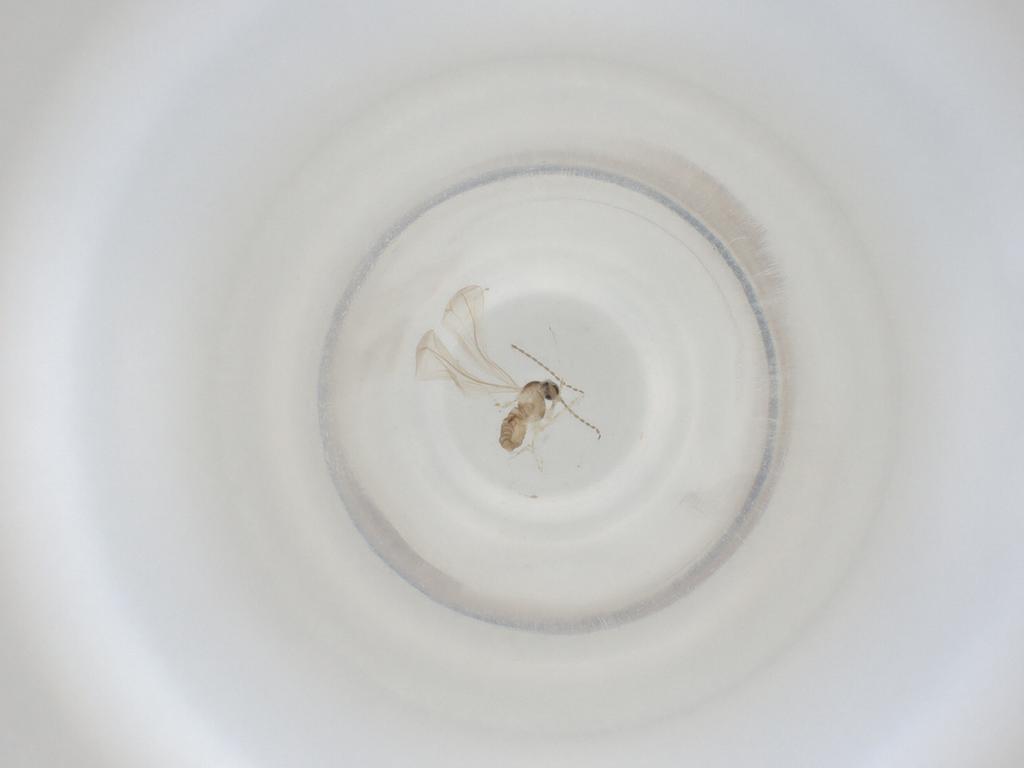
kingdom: Animalia
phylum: Arthropoda
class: Insecta
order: Diptera
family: Cecidomyiidae
